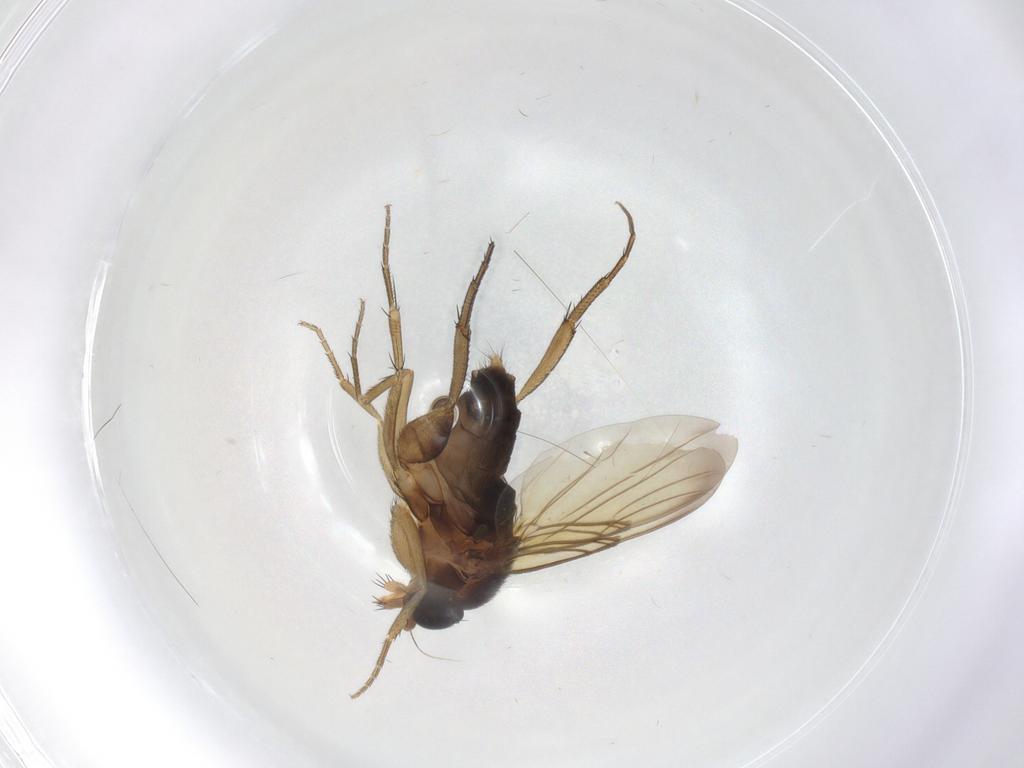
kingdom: Animalia
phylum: Arthropoda
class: Insecta
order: Diptera
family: Phoridae
